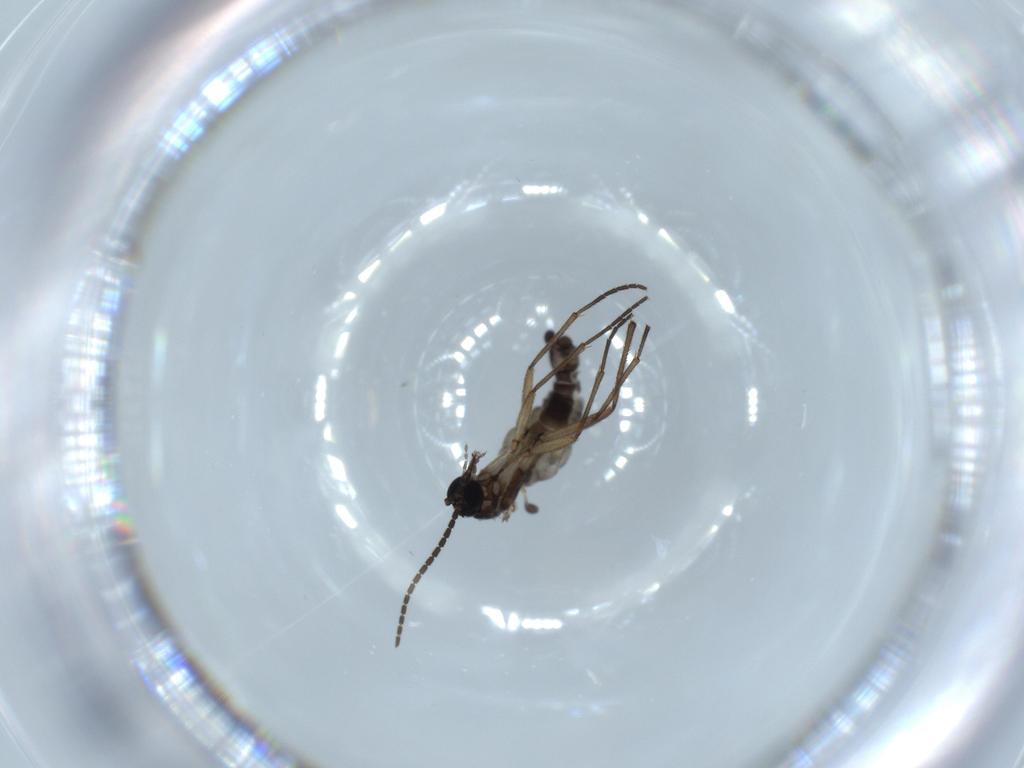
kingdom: Animalia
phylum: Arthropoda
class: Insecta
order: Diptera
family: Sciaridae
